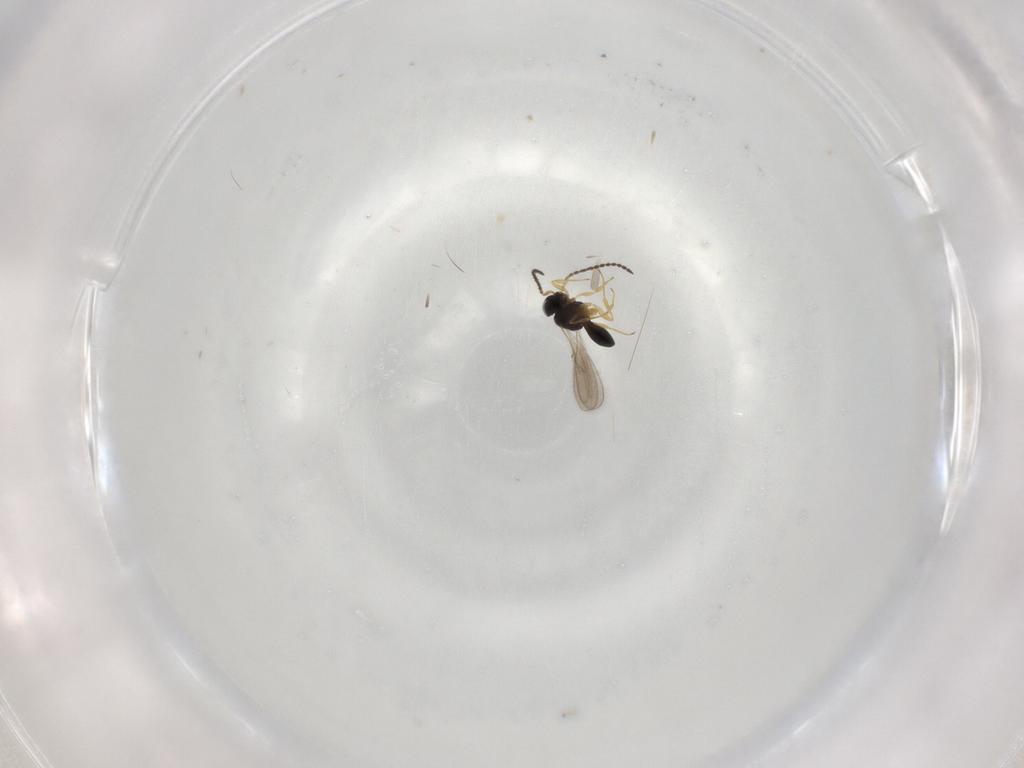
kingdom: Animalia
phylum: Arthropoda
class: Insecta
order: Hymenoptera
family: Scelionidae
